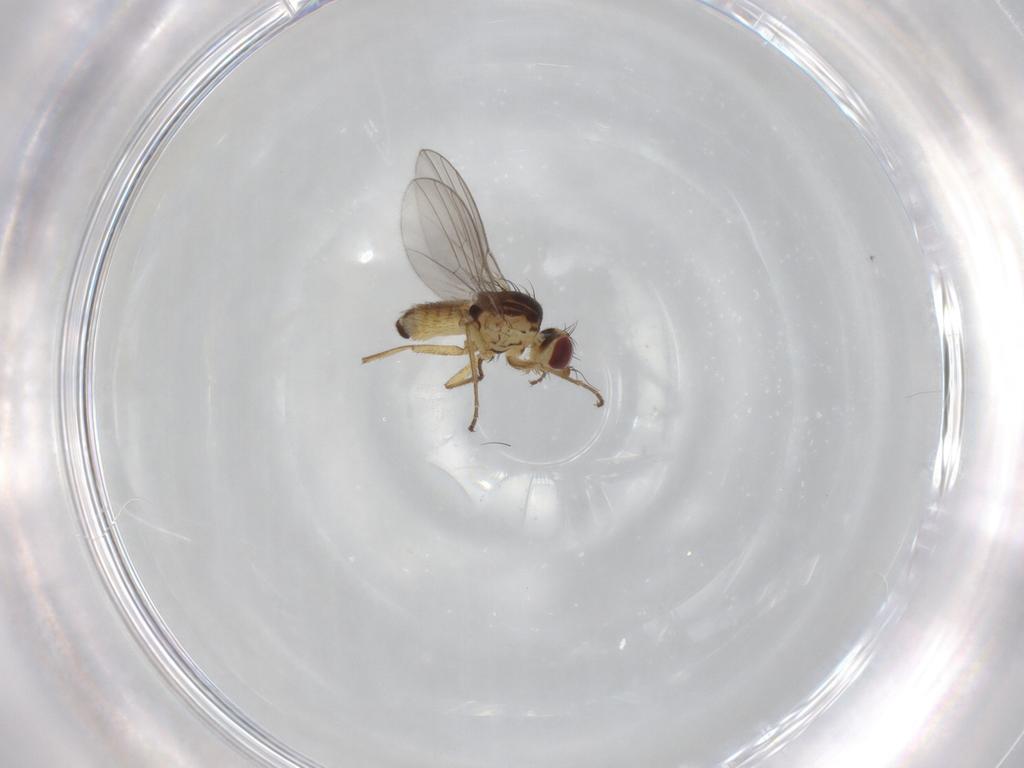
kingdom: Animalia
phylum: Arthropoda
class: Insecta
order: Diptera
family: Agromyzidae
